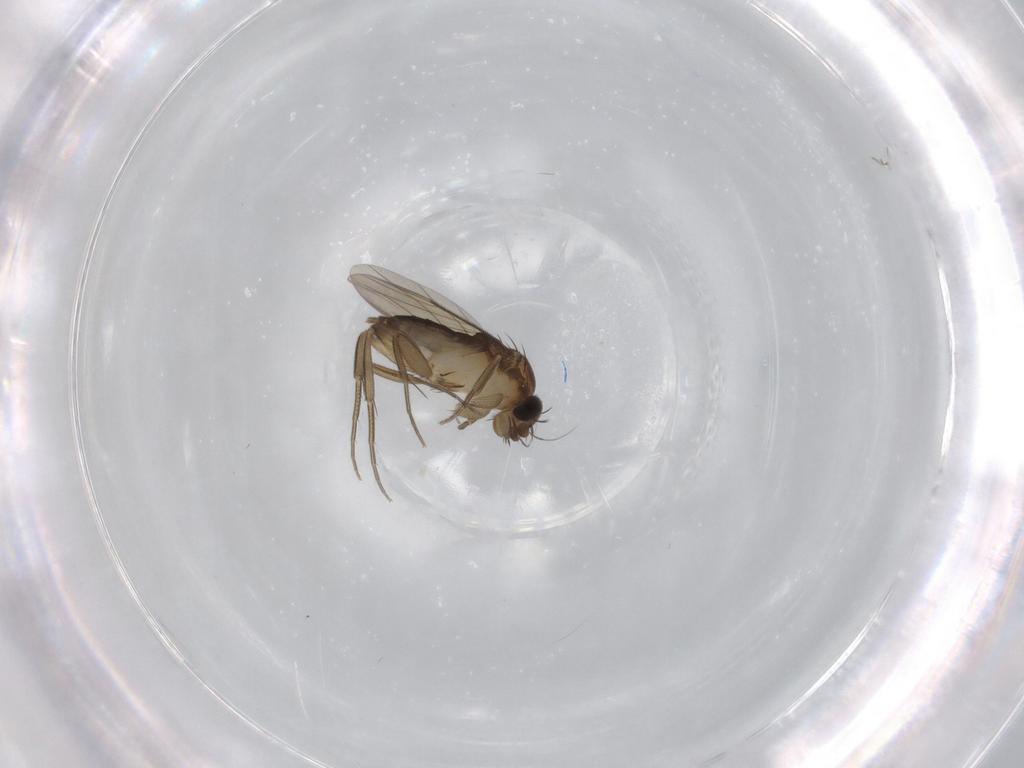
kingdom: Animalia
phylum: Arthropoda
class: Insecta
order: Diptera
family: Phoridae
